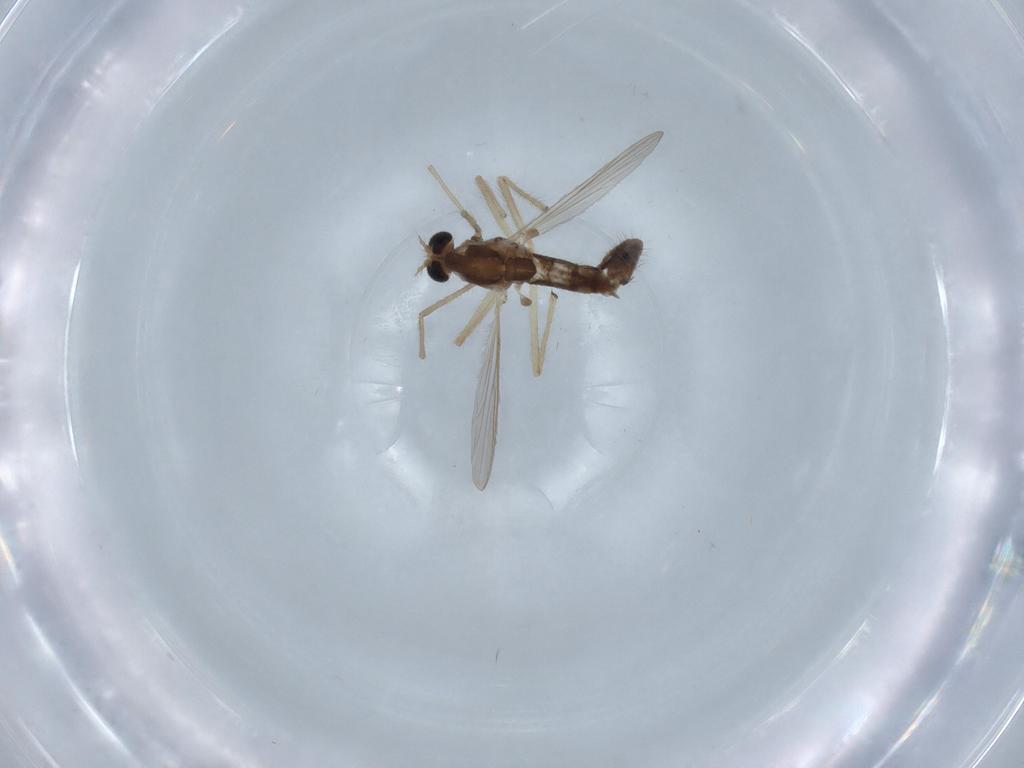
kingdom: Animalia
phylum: Arthropoda
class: Insecta
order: Diptera
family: Chironomidae
